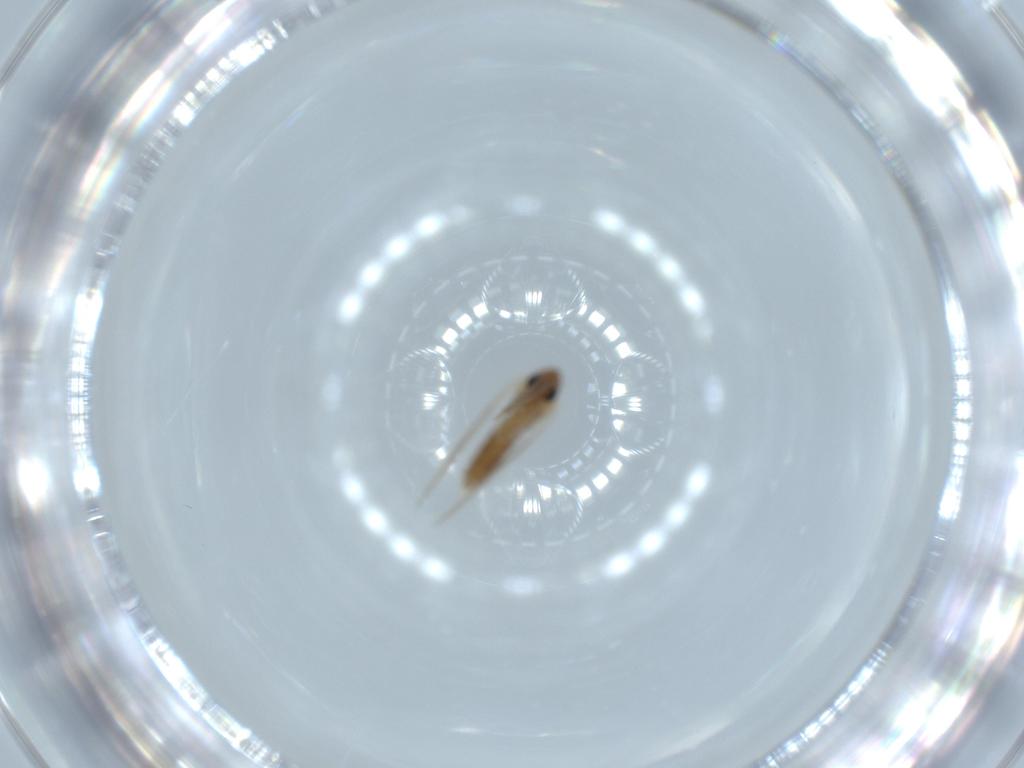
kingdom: Animalia
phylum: Arthropoda
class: Insecta
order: Diptera
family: Psychodidae
